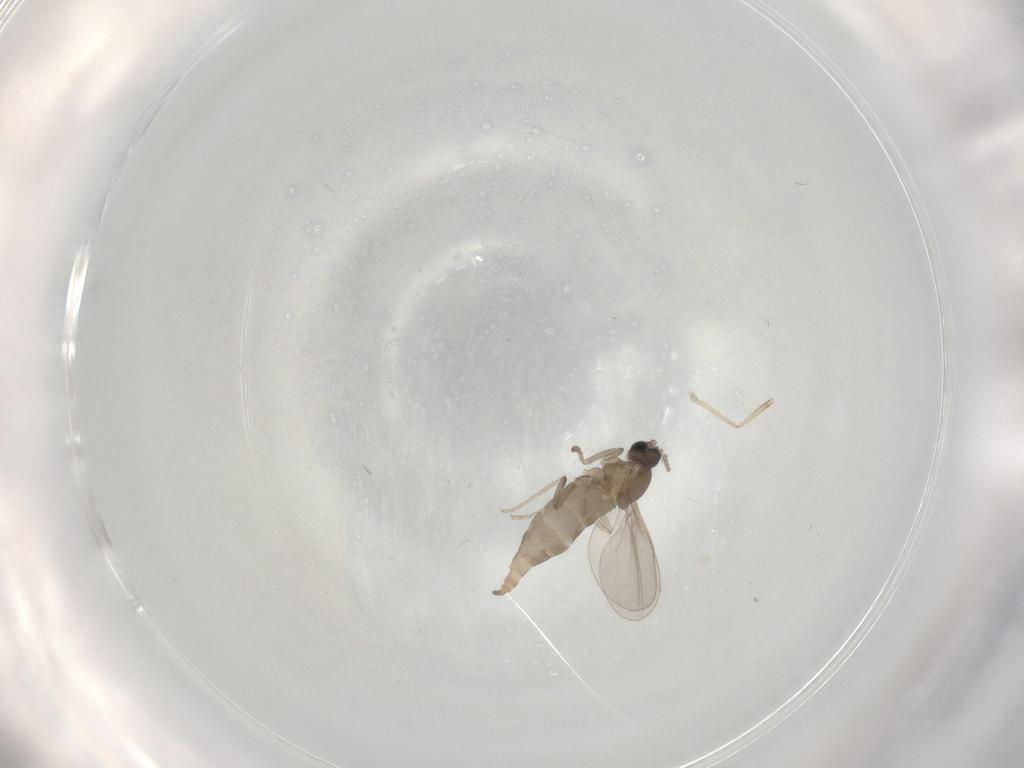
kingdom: Animalia
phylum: Arthropoda
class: Insecta
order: Diptera
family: Cecidomyiidae
